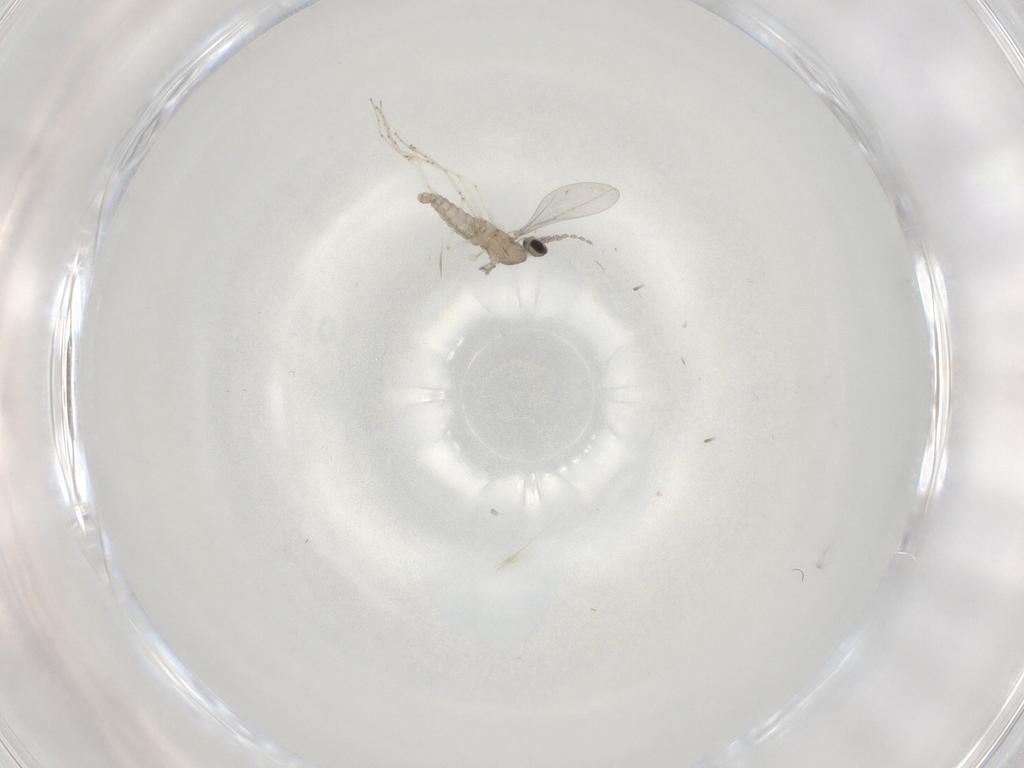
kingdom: Animalia
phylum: Arthropoda
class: Insecta
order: Diptera
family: Cecidomyiidae
